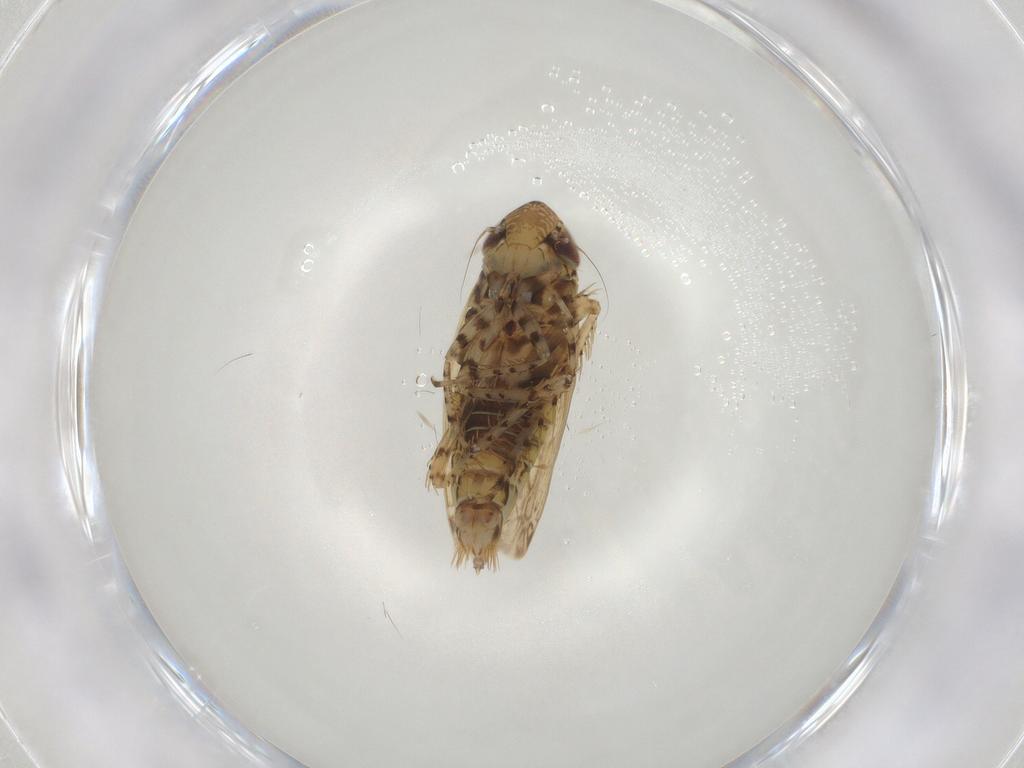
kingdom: Animalia
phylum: Arthropoda
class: Insecta
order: Hemiptera
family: Cicadellidae
